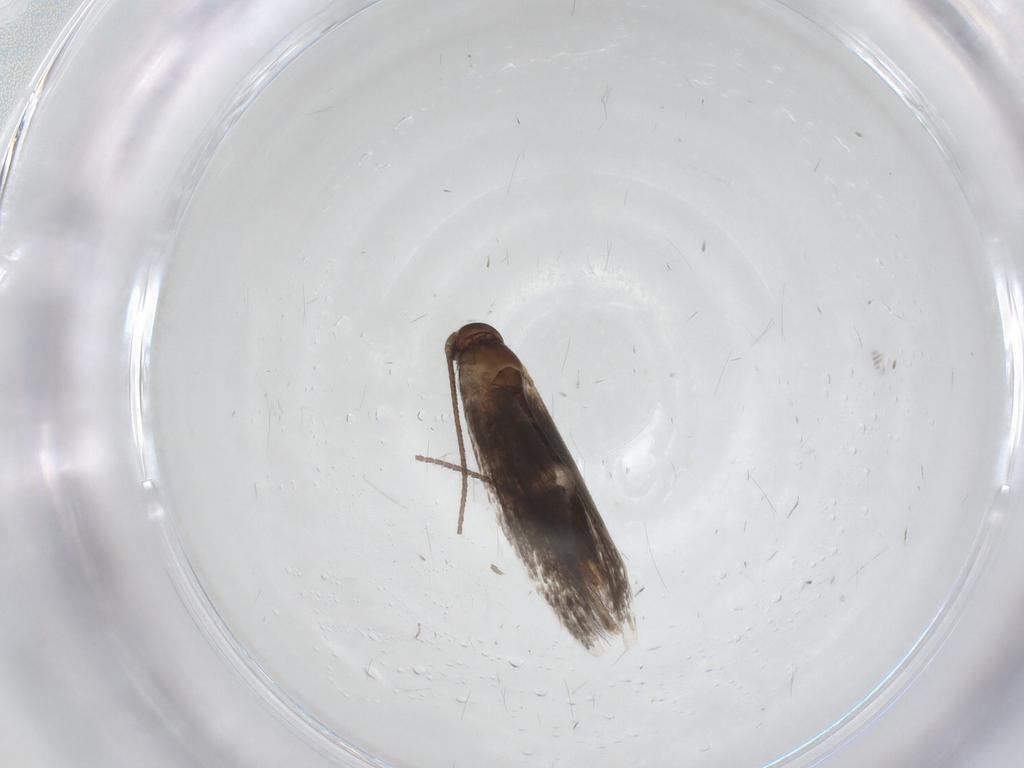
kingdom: Animalia
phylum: Arthropoda
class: Insecta
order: Lepidoptera
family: Elachistidae
